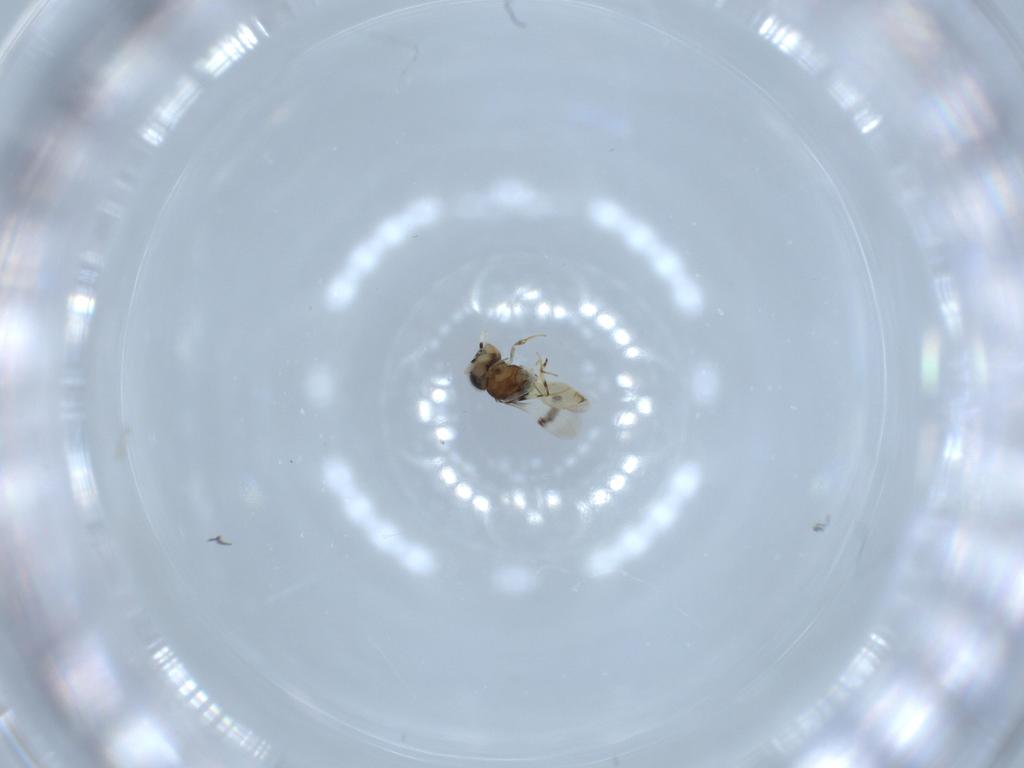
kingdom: Animalia
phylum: Arthropoda
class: Insecta
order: Hymenoptera
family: Scelionidae
